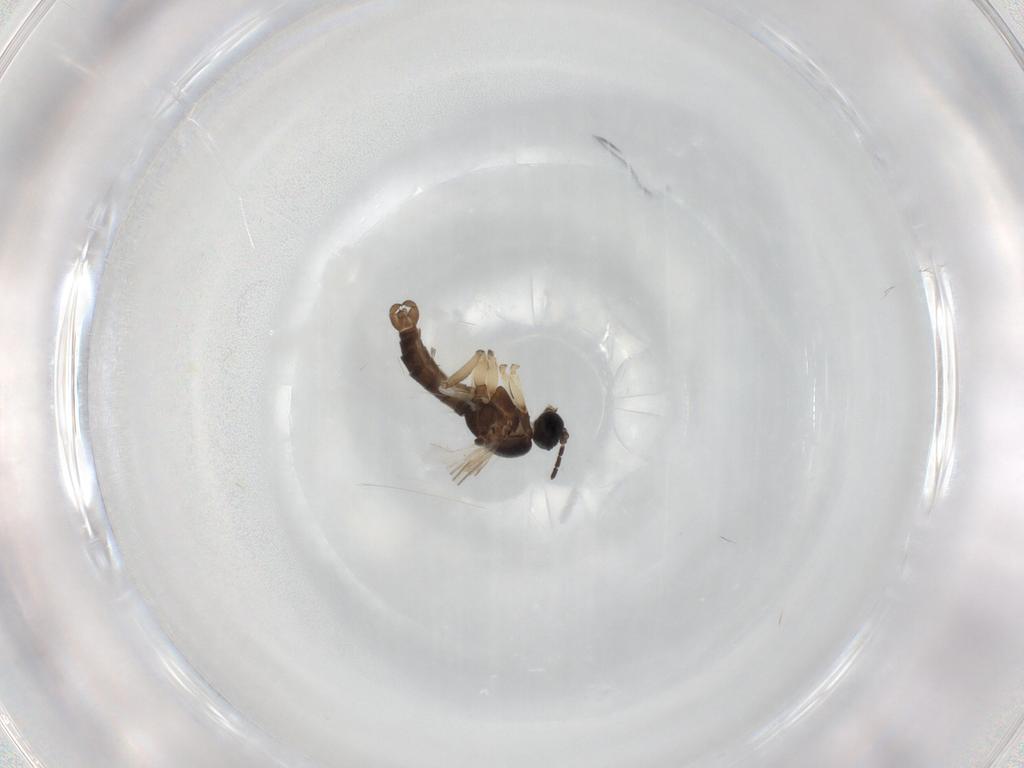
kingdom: Animalia
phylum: Arthropoda
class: Insecta
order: Diptera
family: Sciaridae
